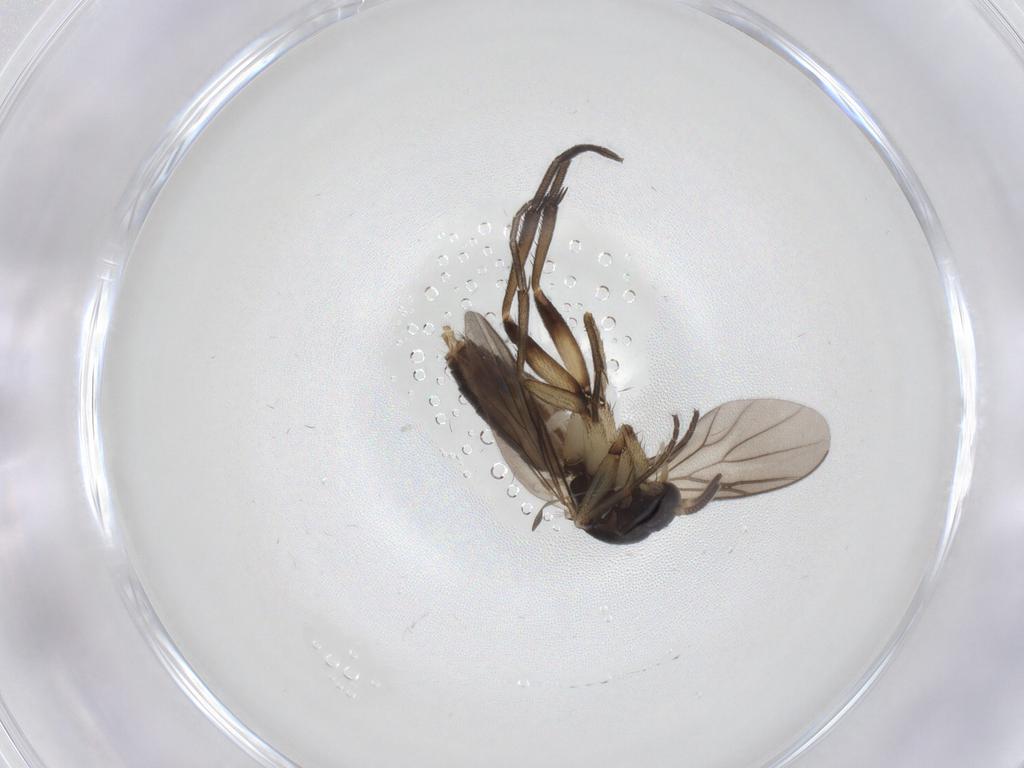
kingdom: Animalia
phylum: Arthropoda
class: Insecta
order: Diptera
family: Mycetophilidae
